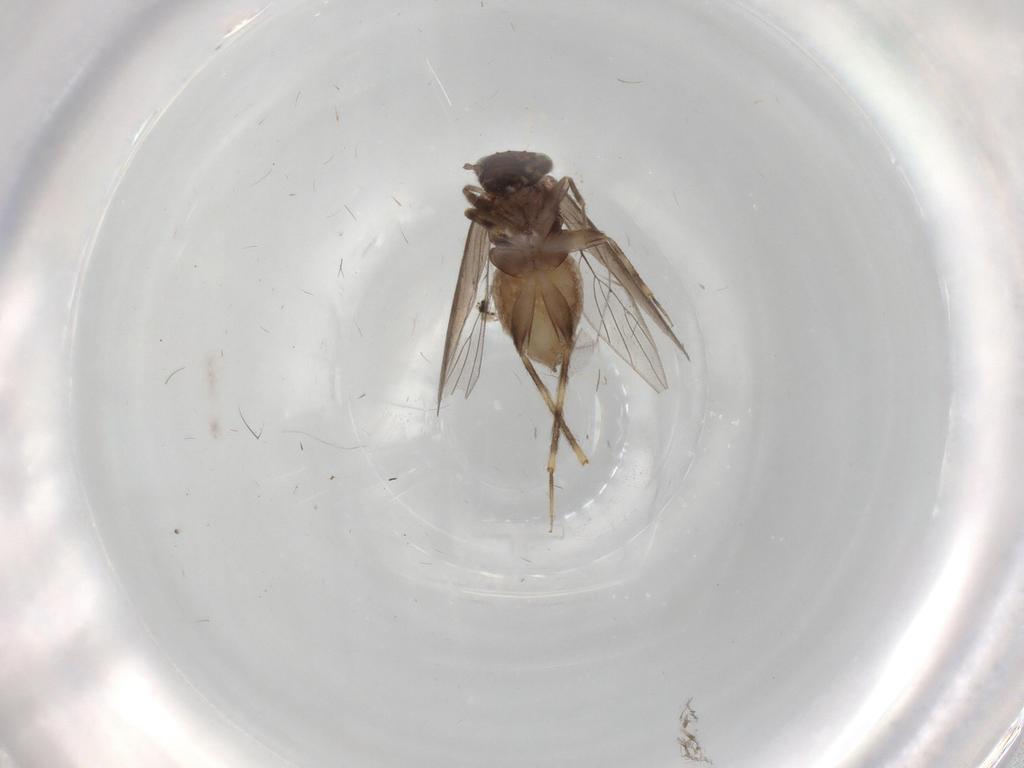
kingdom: Animalia
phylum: Arthropoda
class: Insecta
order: Psocodea
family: Lepidopsocidae
